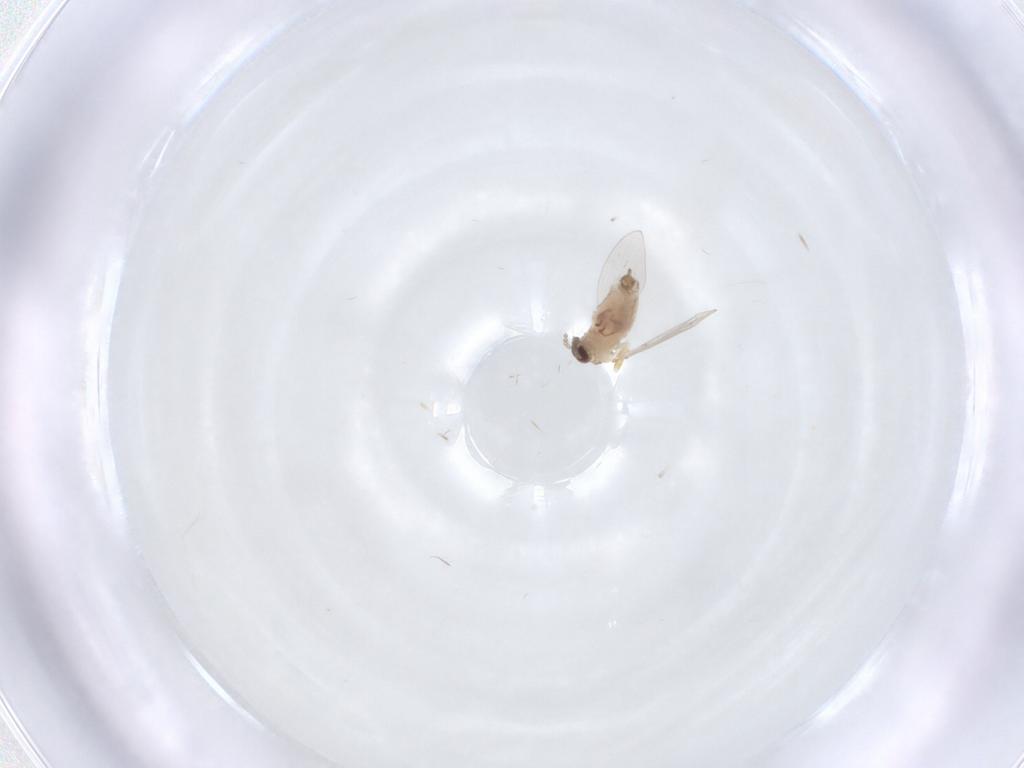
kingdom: Animalia
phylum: Arthropoda
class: Insecta
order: Diptera
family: Psychodidae
